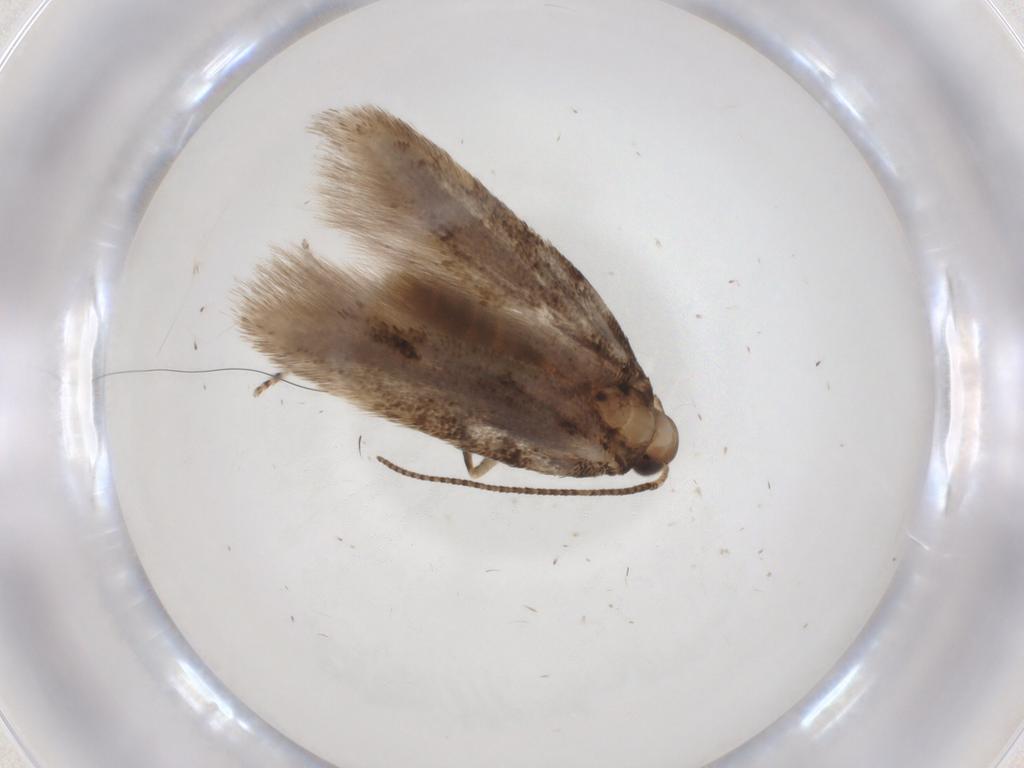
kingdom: Animalia
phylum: Arthropoda
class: Insecta
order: Lepidoptera
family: Gelechiidae
